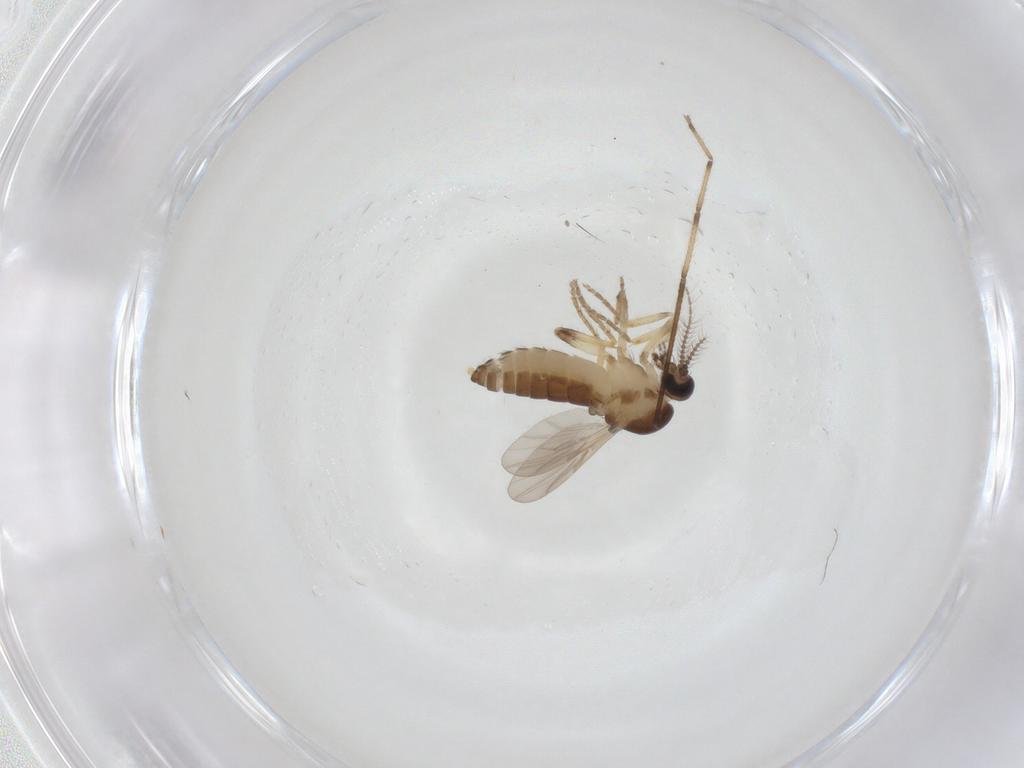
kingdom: Animalia
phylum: Arthropoda
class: Insecta
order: Diptera
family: Chironomidae
